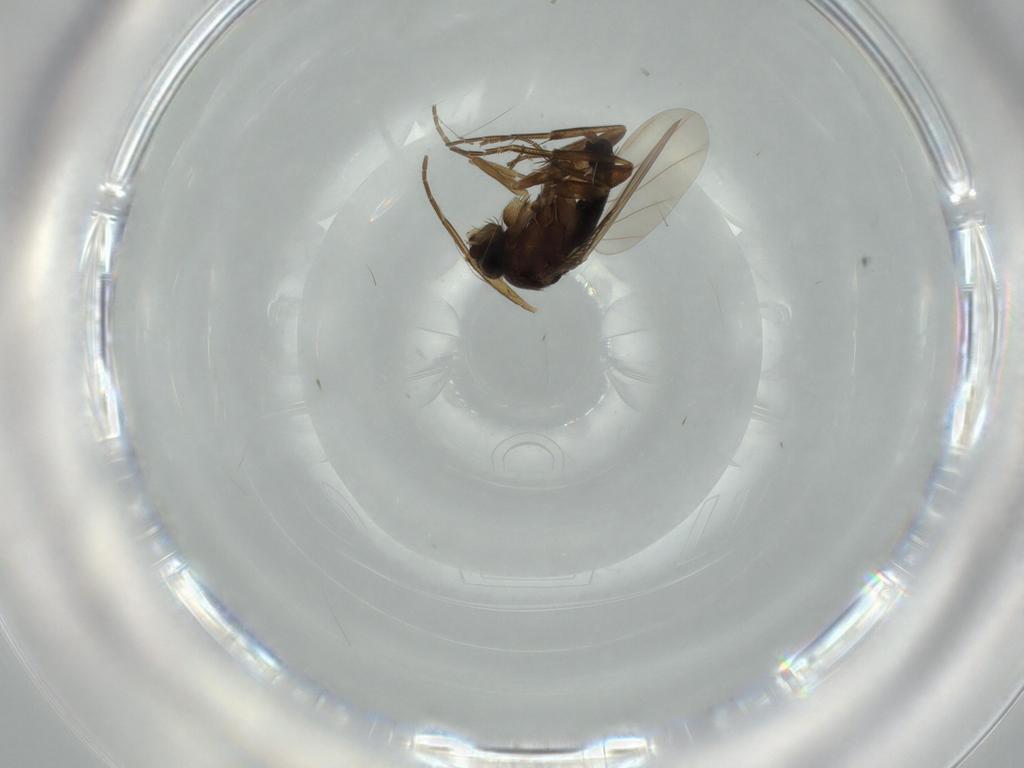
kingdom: Animalia
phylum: Arthropoda
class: Insecta
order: Diptera
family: Phoridae
